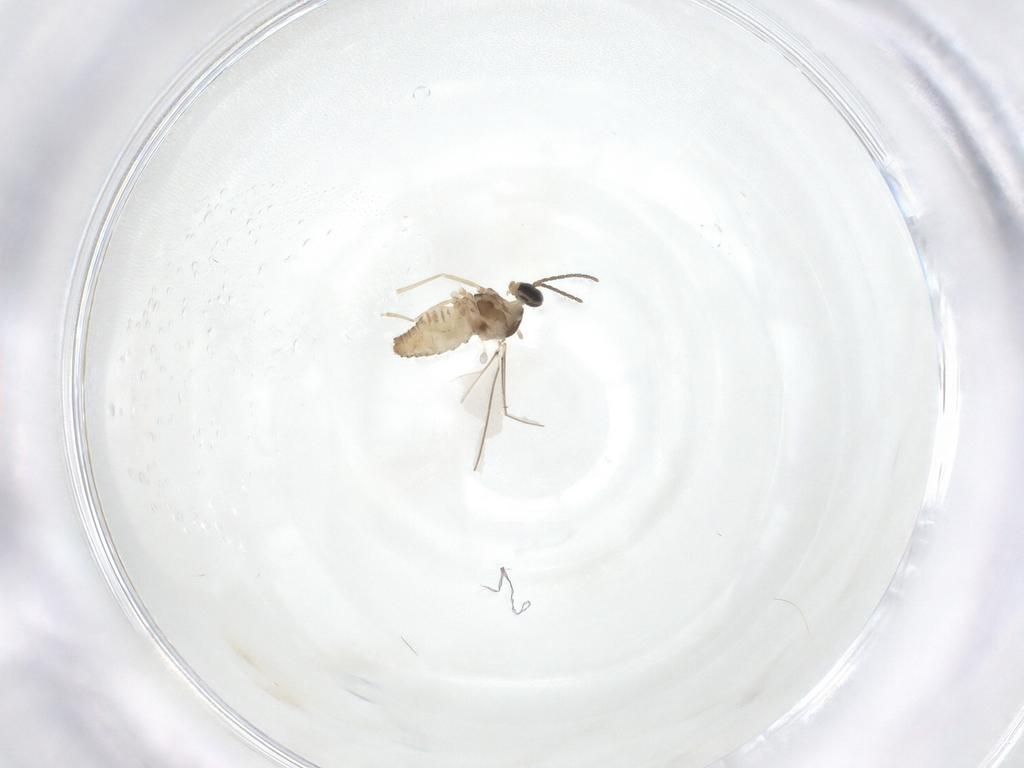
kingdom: Animalia
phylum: Arthropoda
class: Insecta
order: Diptera
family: Cecidomyiidae
